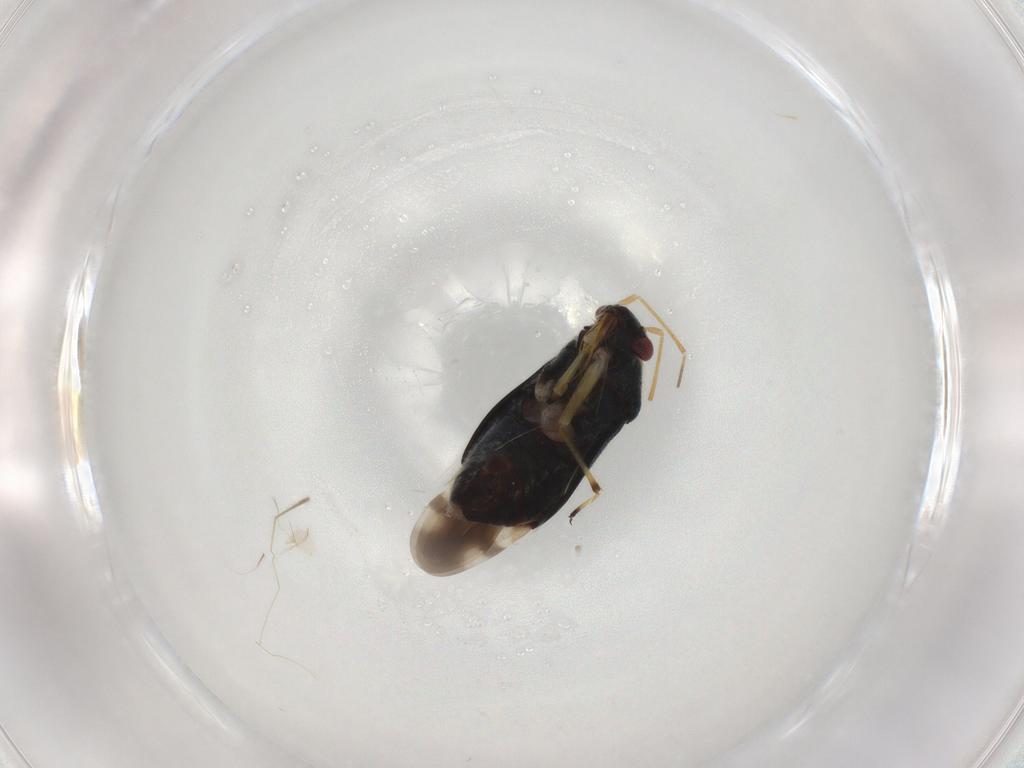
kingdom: Animalia
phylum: Arthropoda
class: Insecta
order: Hemiptera
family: Miridae
